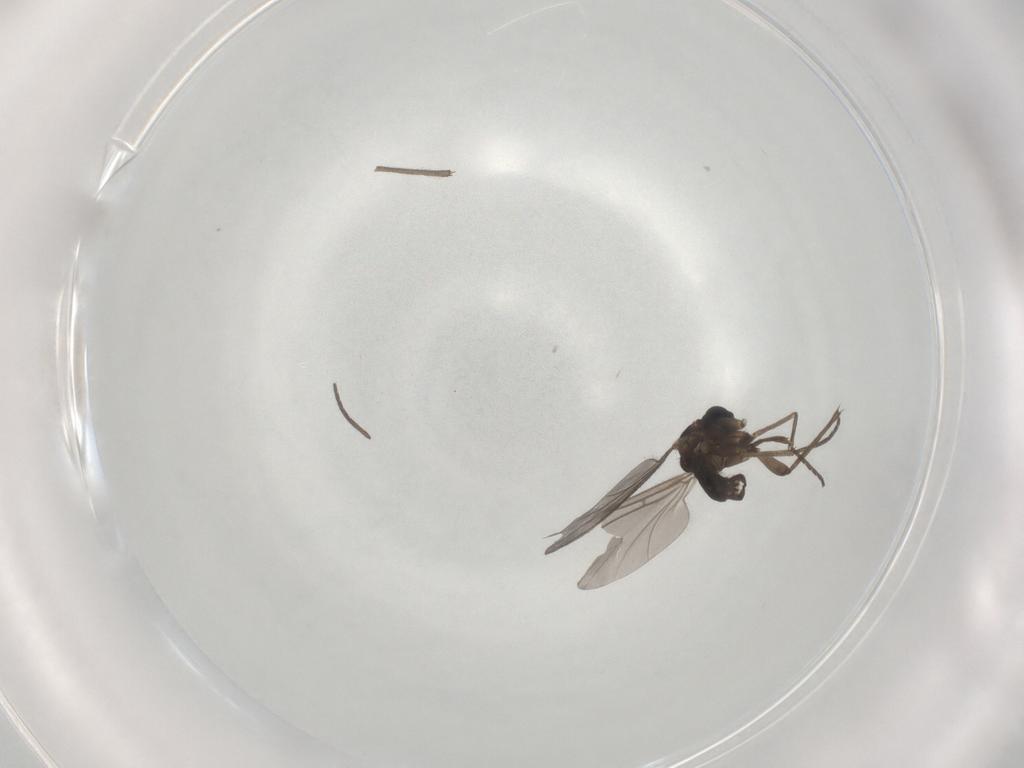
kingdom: Animalia
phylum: Arthropoda
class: Insecta
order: Diptera
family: Sciaridae
